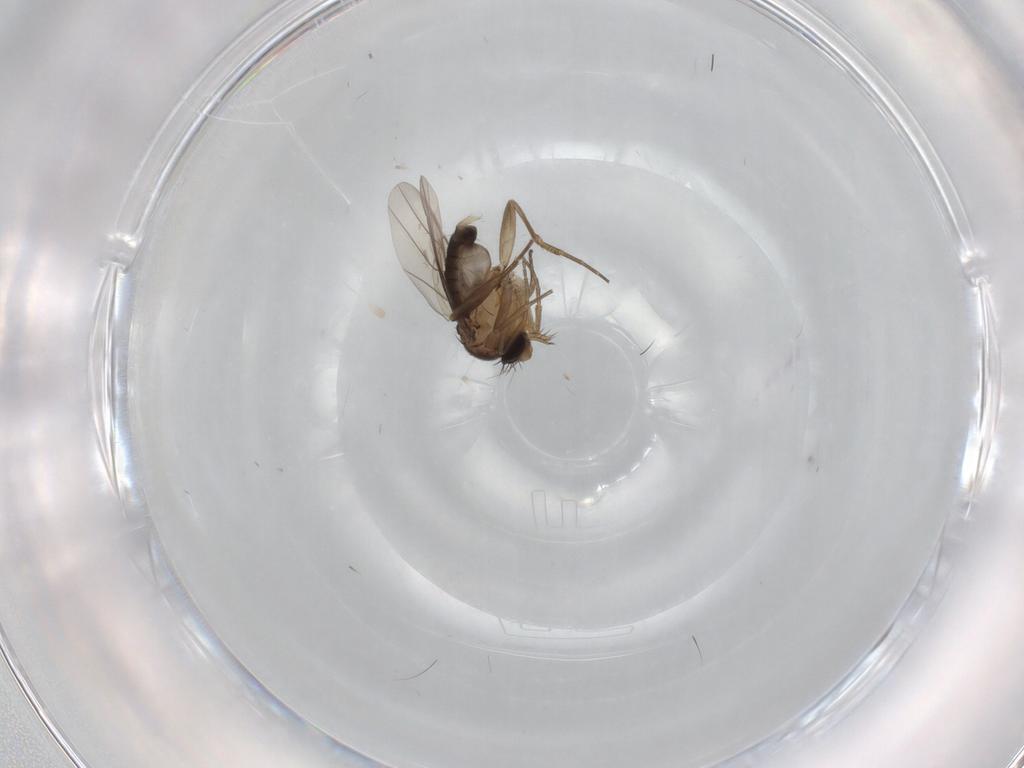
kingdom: Animalia
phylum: Arthropoda
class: Insecta
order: Diptera
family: Phoridae
